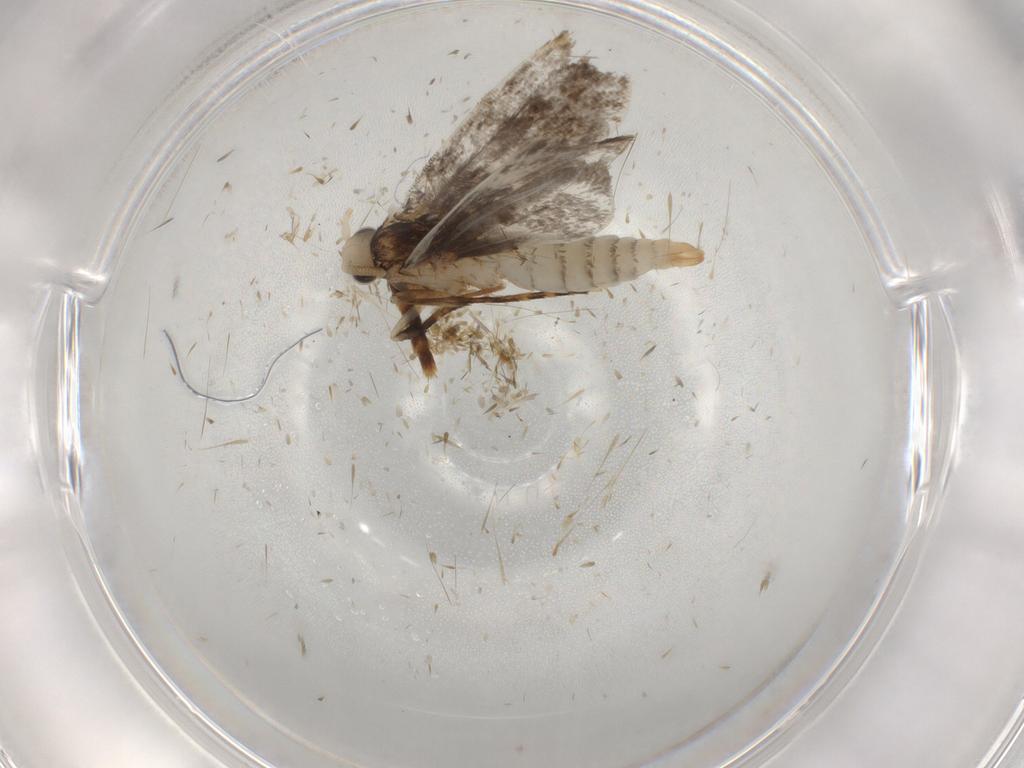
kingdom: Animalia
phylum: Arthropoda
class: Insecta
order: Lepidoptera
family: Tineidae
